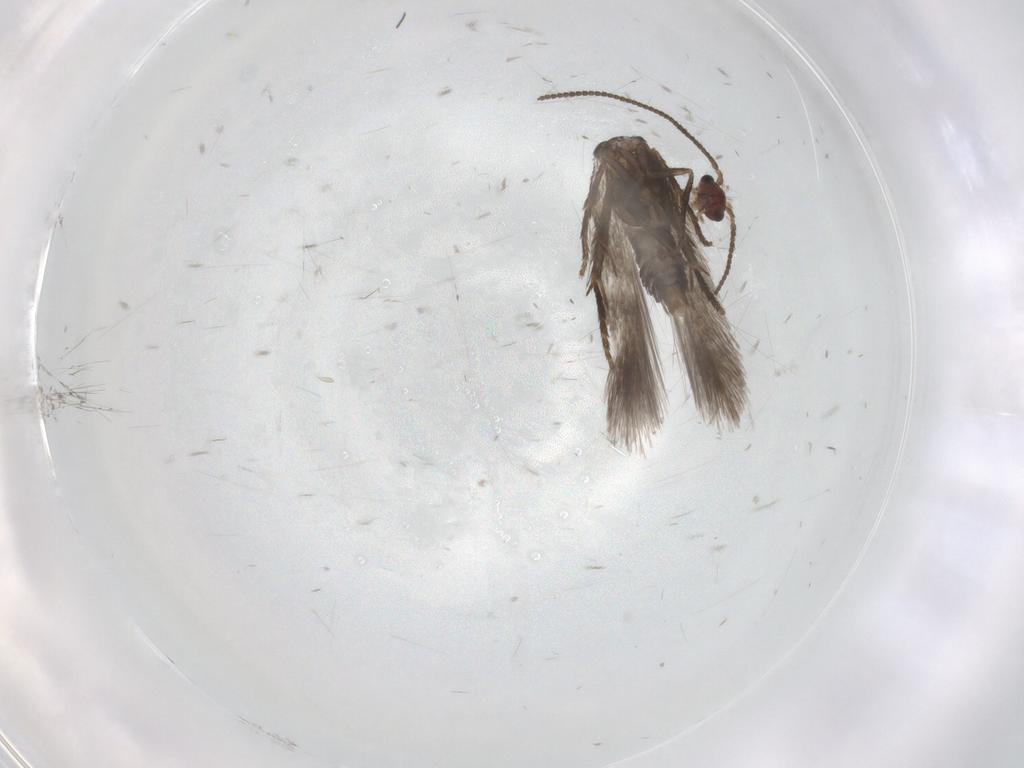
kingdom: Animalia
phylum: Arthropoda
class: Insecta
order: Lepidoptera
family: Nepticulidae
